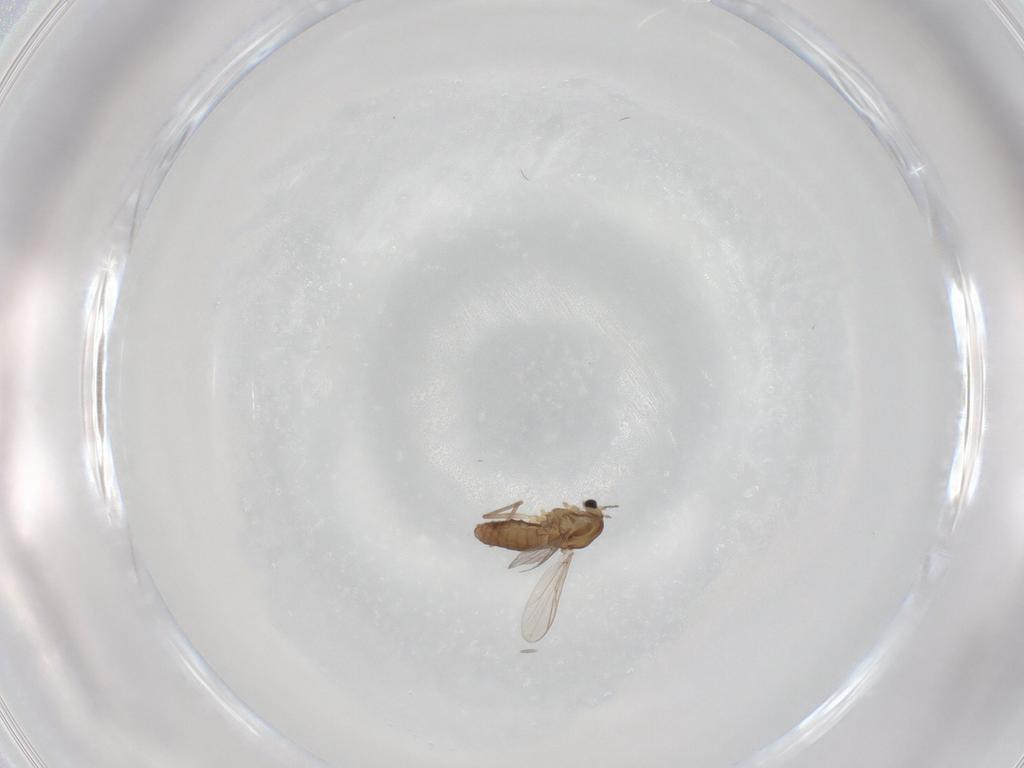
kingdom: Animalia
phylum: Arthropoda
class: Insecta
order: Diptera
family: Chironomidae
